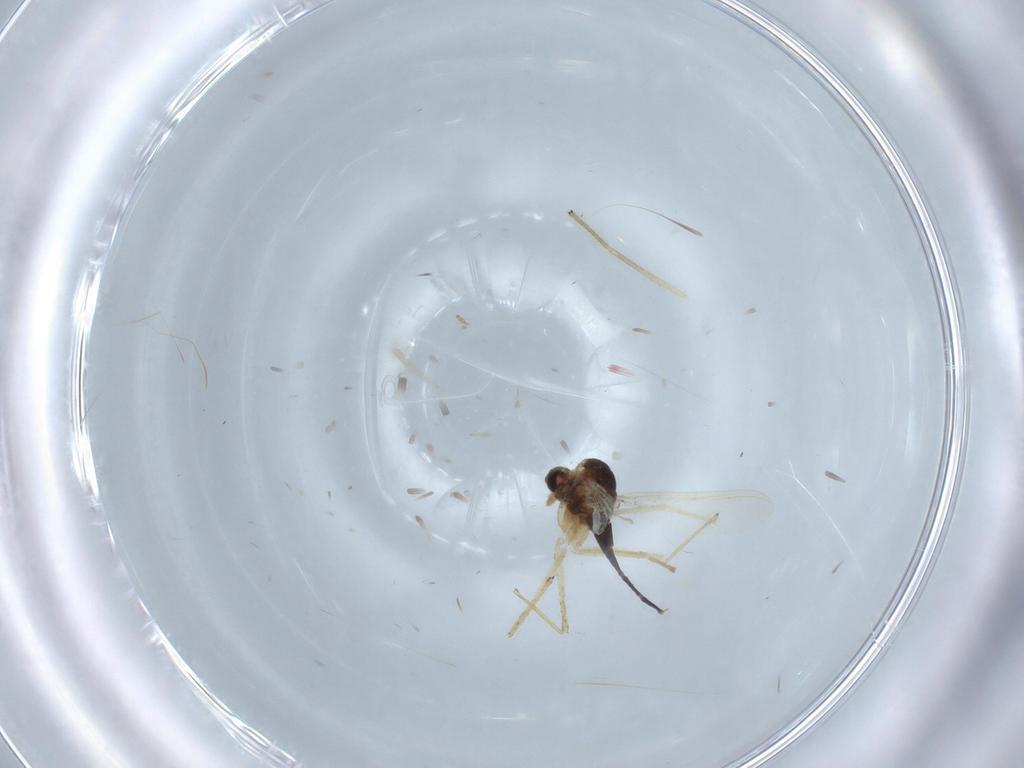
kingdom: Animalia
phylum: Arthropoda
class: Insecta
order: Diptera
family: Chironomidae
